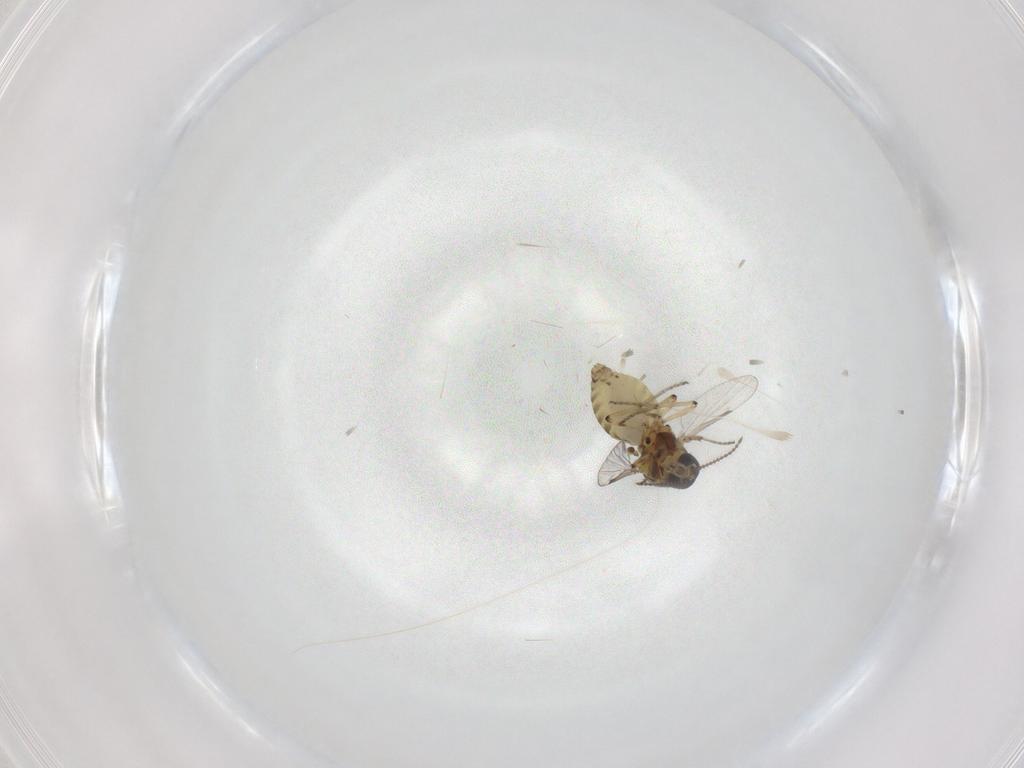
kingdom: Animalia
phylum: Arthropoda
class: Insecta
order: Diptera
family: Ceratopogonidae
